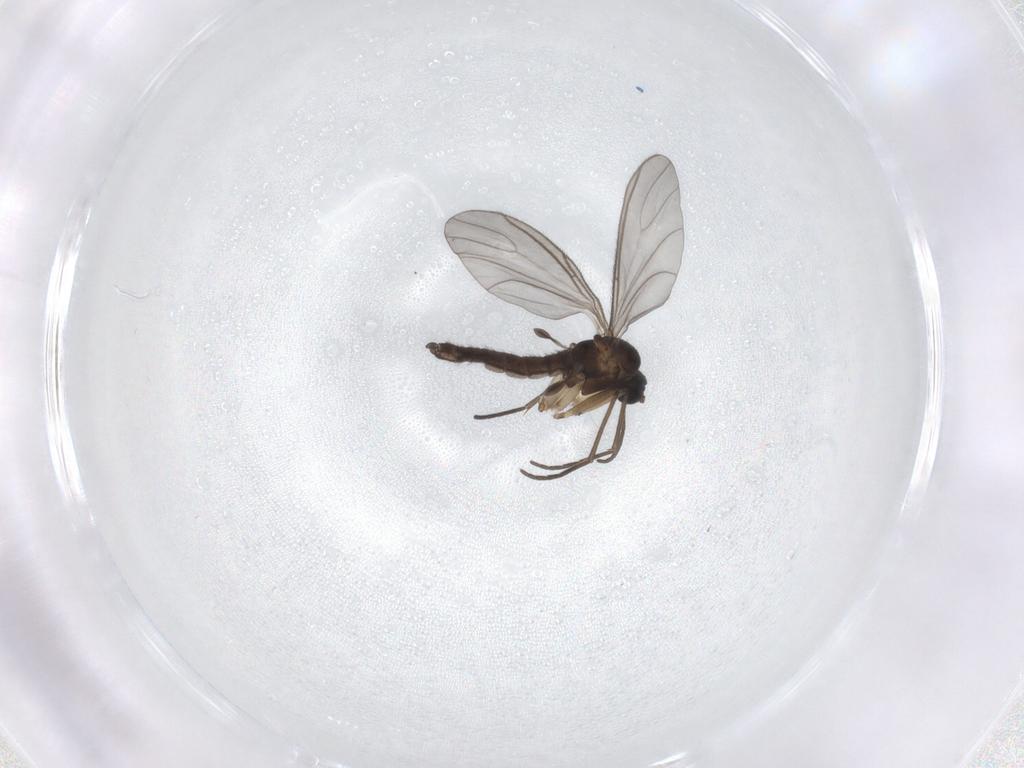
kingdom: Animalia
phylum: Arthropoda
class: Insecta
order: Diptera
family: Sciaridae
